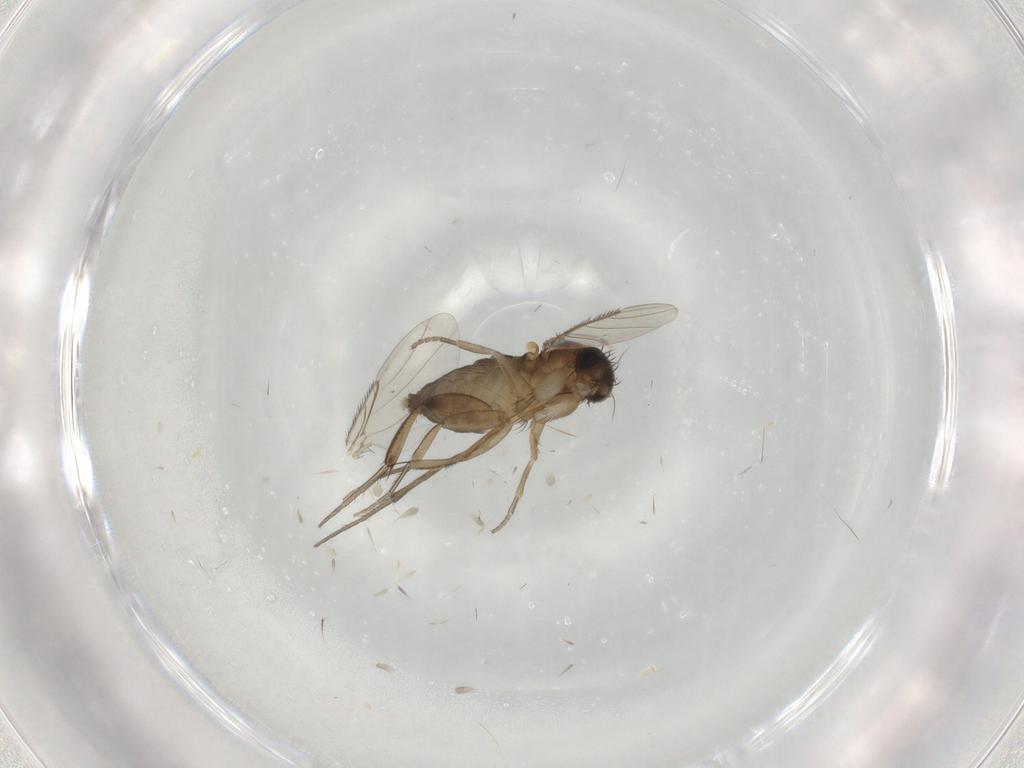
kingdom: Animalia
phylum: Arthropoda
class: Insecta
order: Diptera
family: Phoridae
